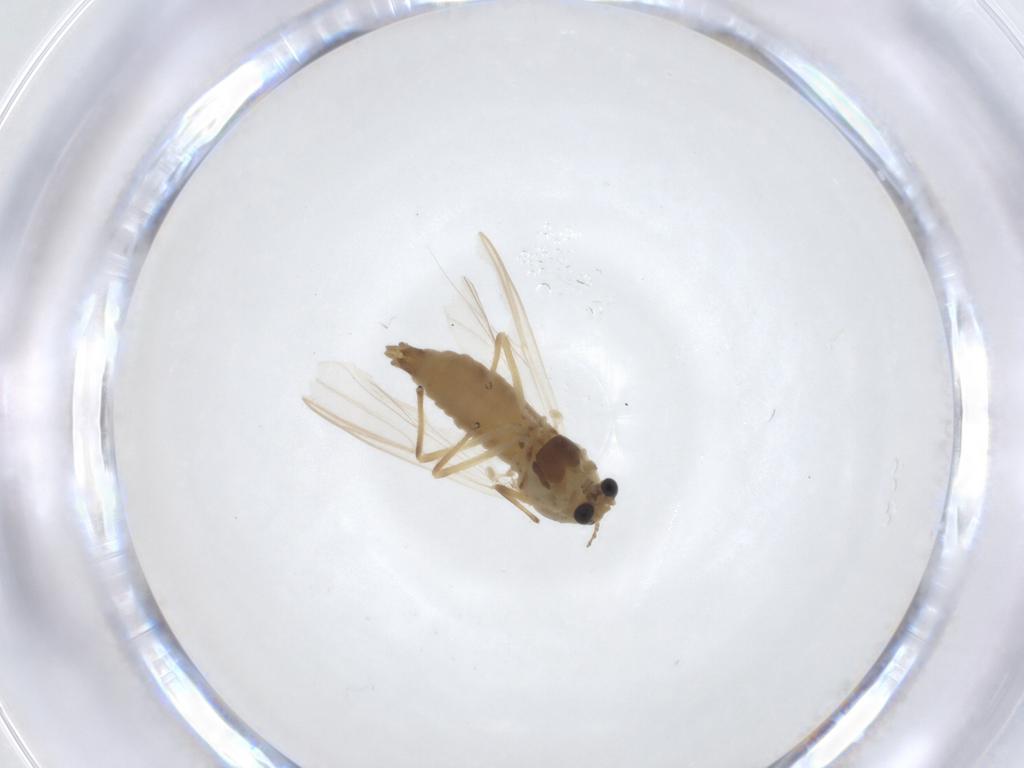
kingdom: Animalia
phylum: Arthropoda
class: Insecta
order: Diptera
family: Chironomidae
